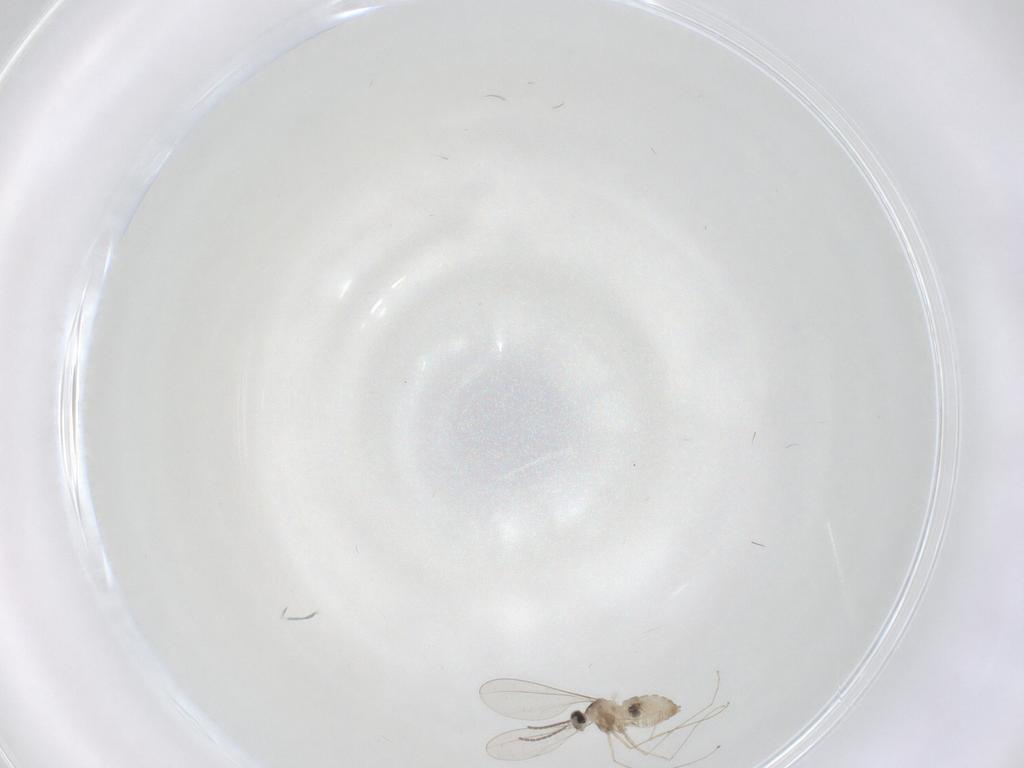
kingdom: Animalia
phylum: Arthropoda
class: Insecta
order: Diptera
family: Cecidomyiidae
